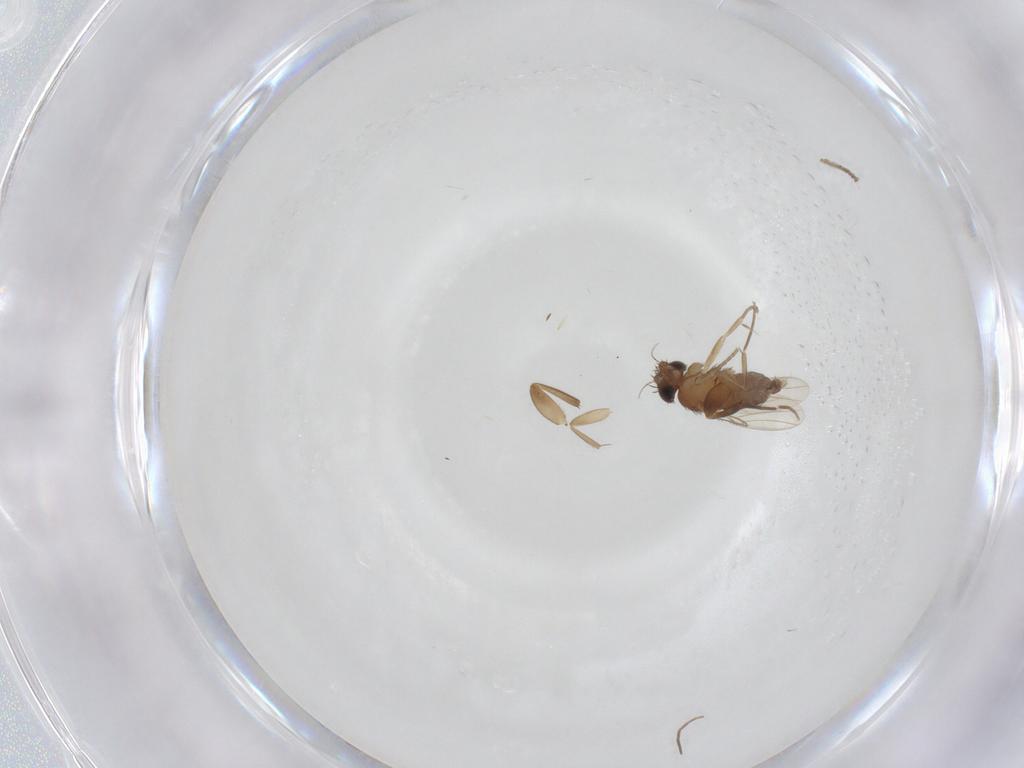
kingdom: Animalia
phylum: Arthropoda
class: Insecta
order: Diptera
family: Phoridae
